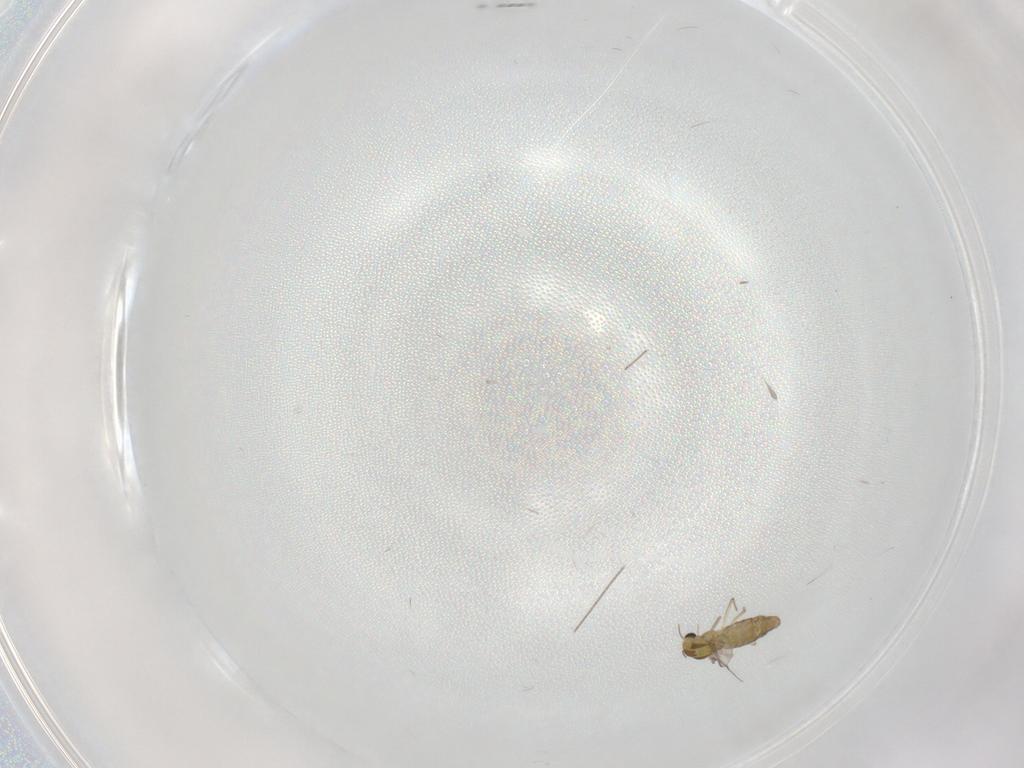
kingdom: Animalia
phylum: Arthropoda
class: Insecta
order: Diptera
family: Chironomidae
